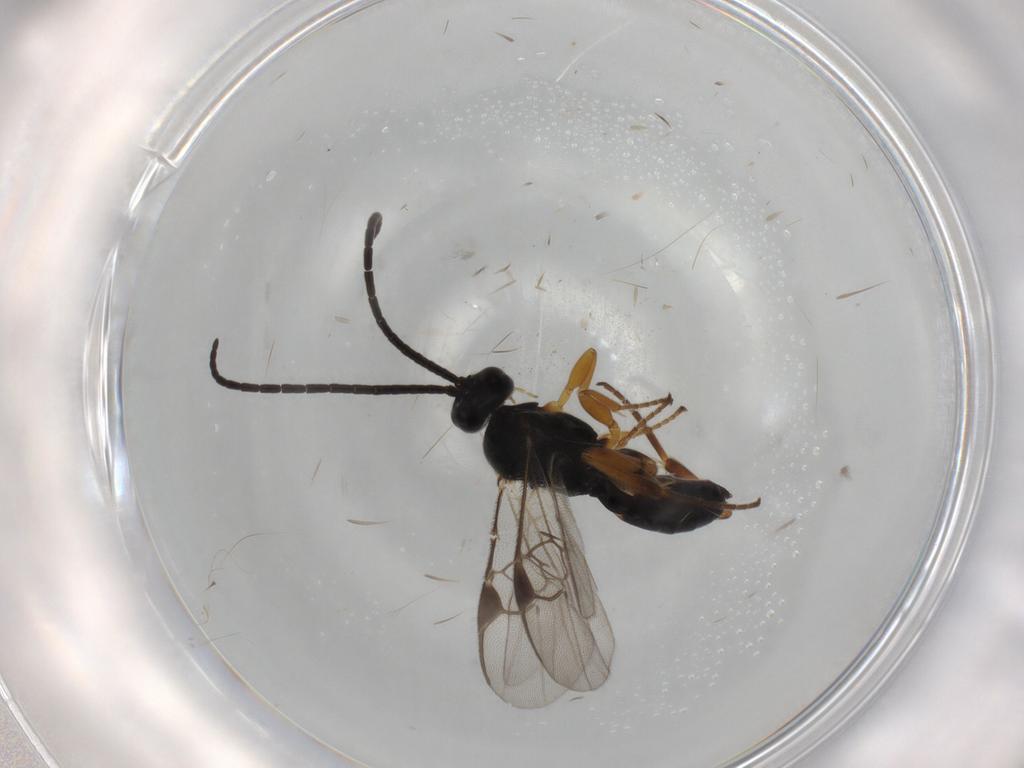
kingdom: Animalia
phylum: Arthropoda
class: Insecta
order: Hymenoptera
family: Braconidae
